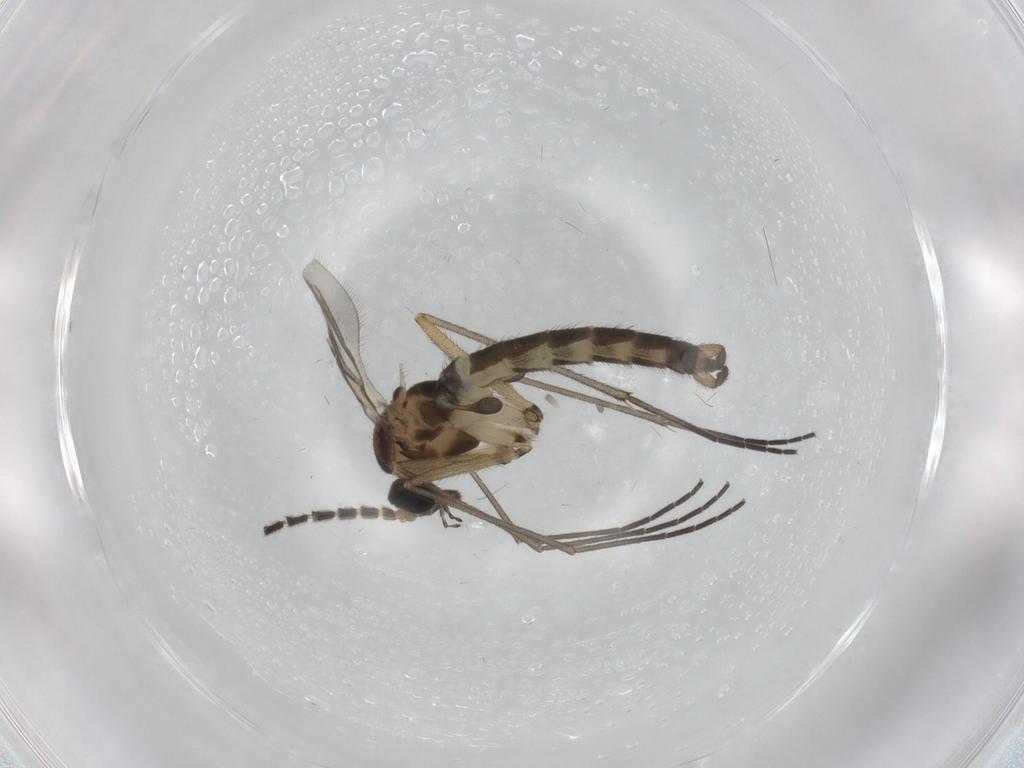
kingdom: Animalia
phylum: Arthropoda
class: Insecta
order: Diptera
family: Sciaridae
